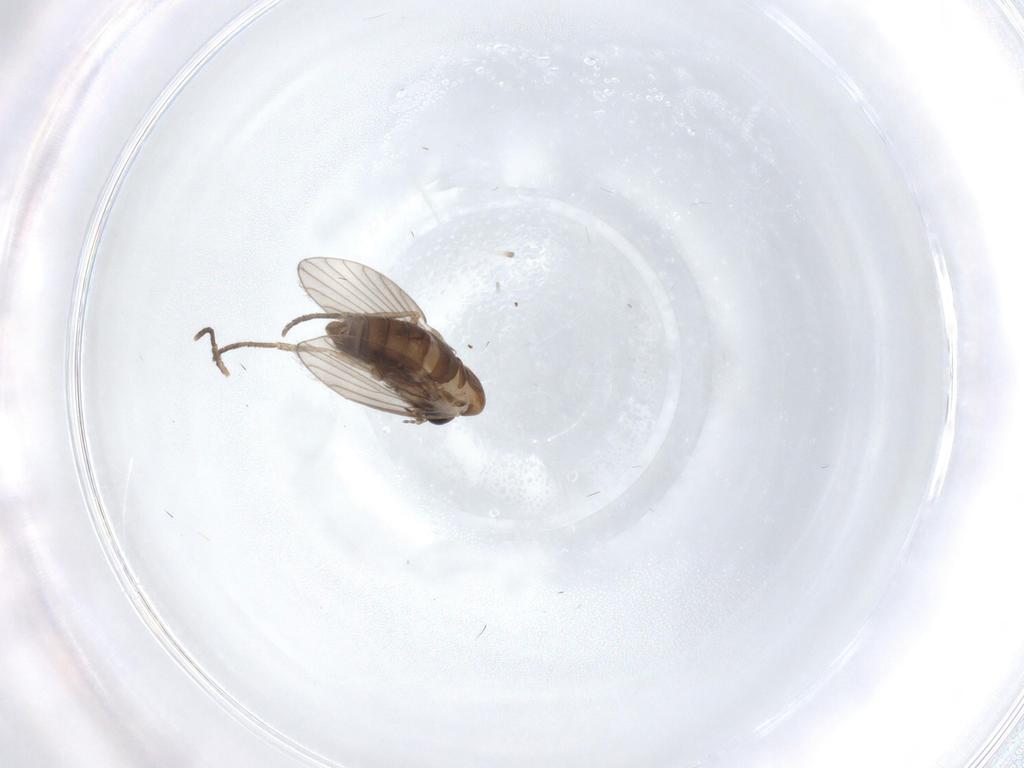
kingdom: Animalia
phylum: Arthropoda
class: Insecta
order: Diptera
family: Psychodidae
